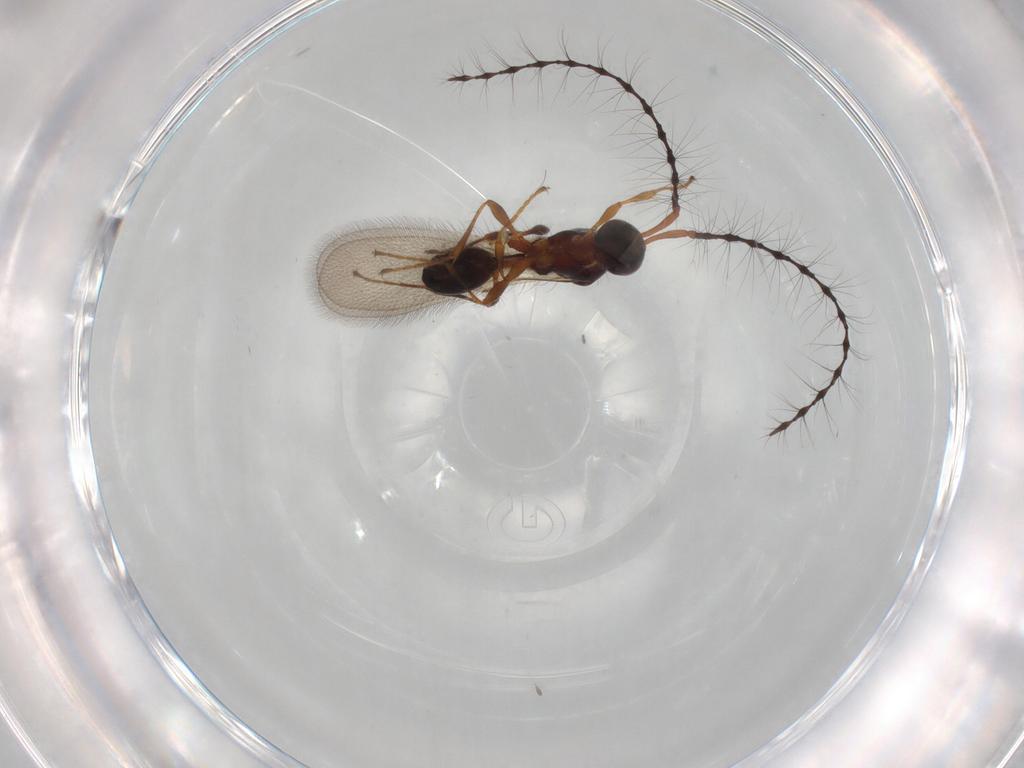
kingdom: Animalia
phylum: Arthropoda
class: Insecta
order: Hymenoptera
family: Diapriidae
